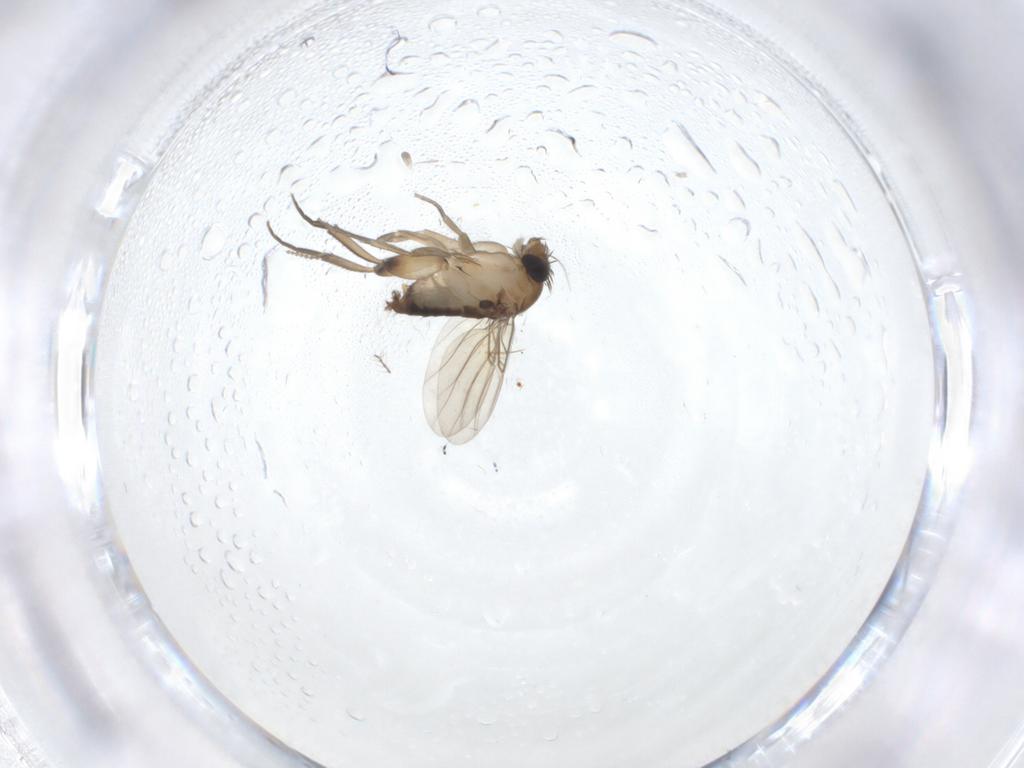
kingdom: Animalia
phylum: Arthropoda
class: Insecta
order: Diptera
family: Phoridae
